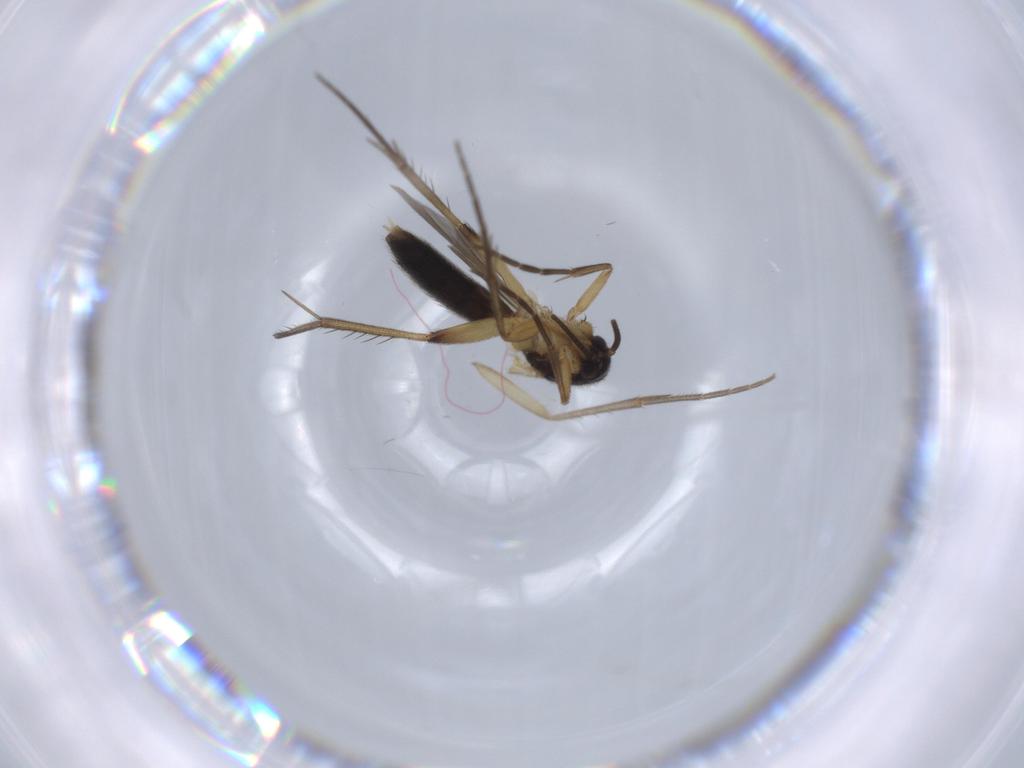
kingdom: Animalia
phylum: Arthropoda
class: Insecta
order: Diptera
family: Mycetophilidae
